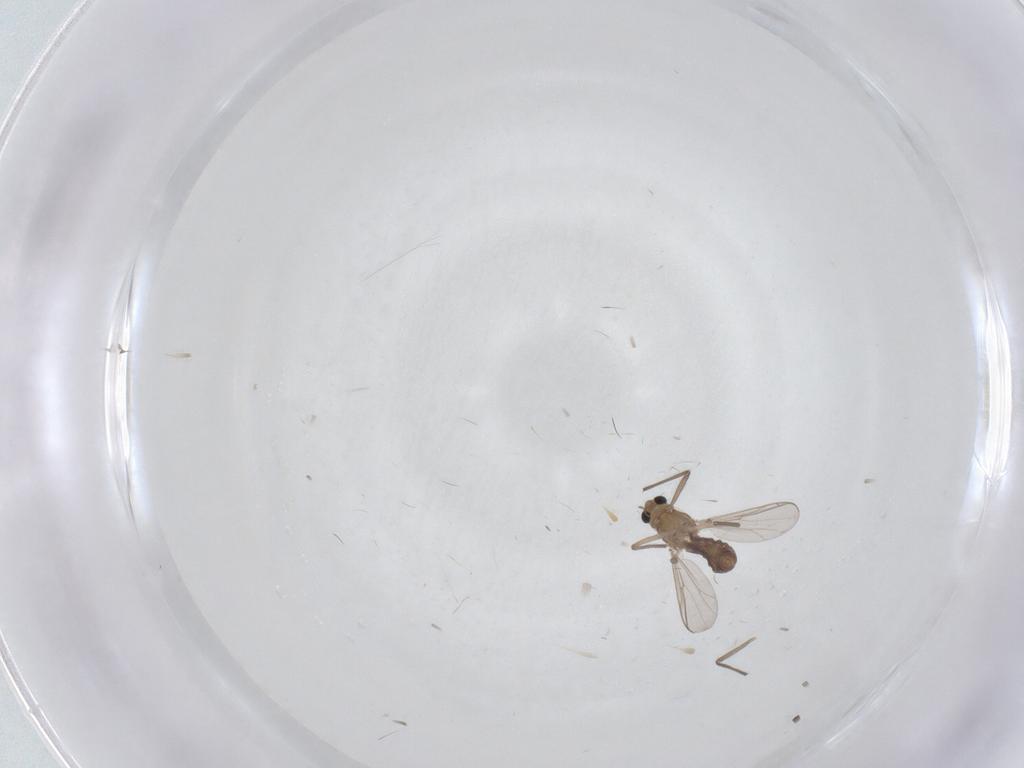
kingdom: Animalia
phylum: Arthropoda
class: Insecta
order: Diptera
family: Chironomidae
